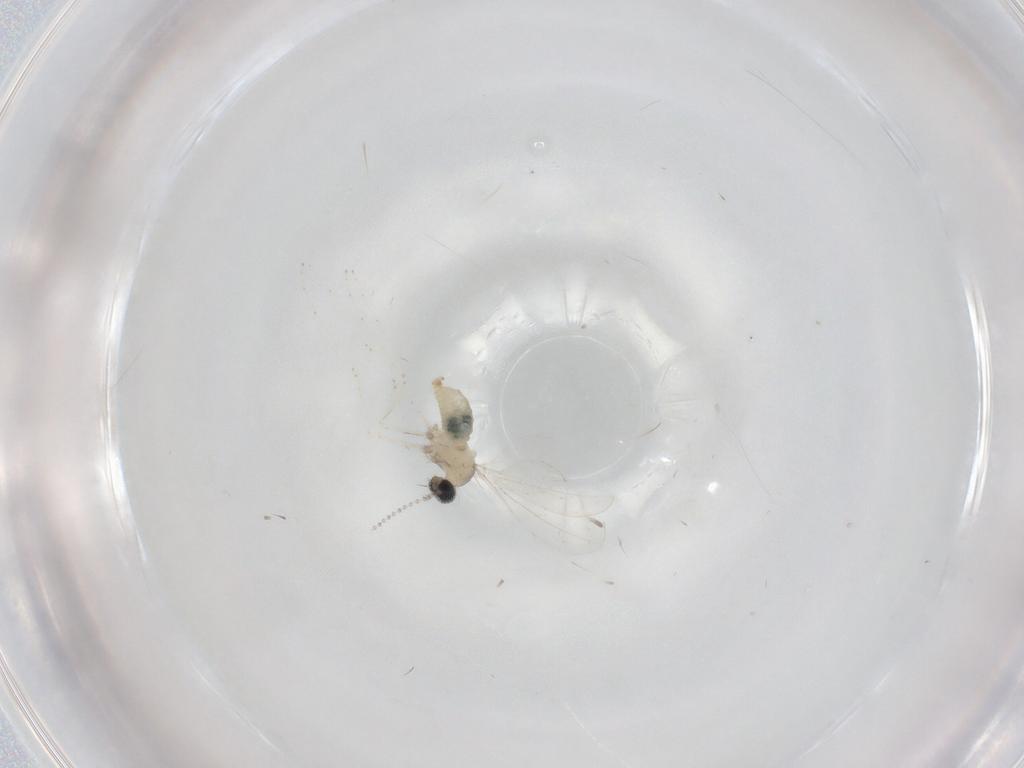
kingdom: Animalia
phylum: Arthropoda
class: Insecta
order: Diptera
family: Cecidomyiidae
